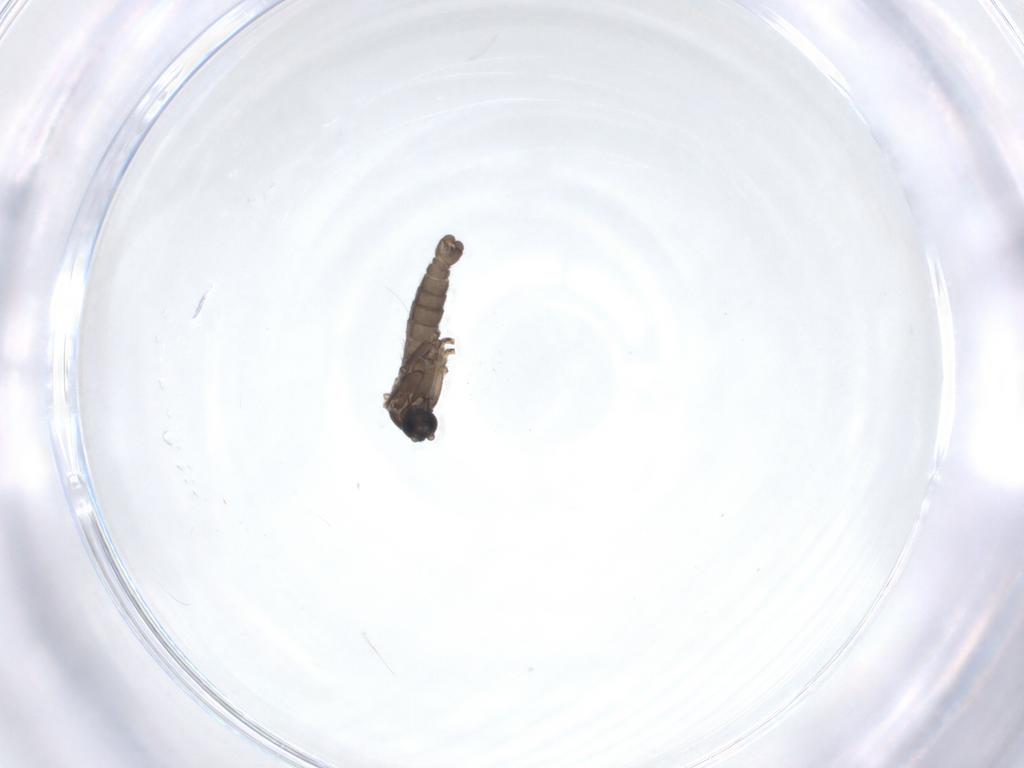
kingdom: Animalia
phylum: Arthropoda
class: Insecta
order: Diptera
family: Sciaridae
